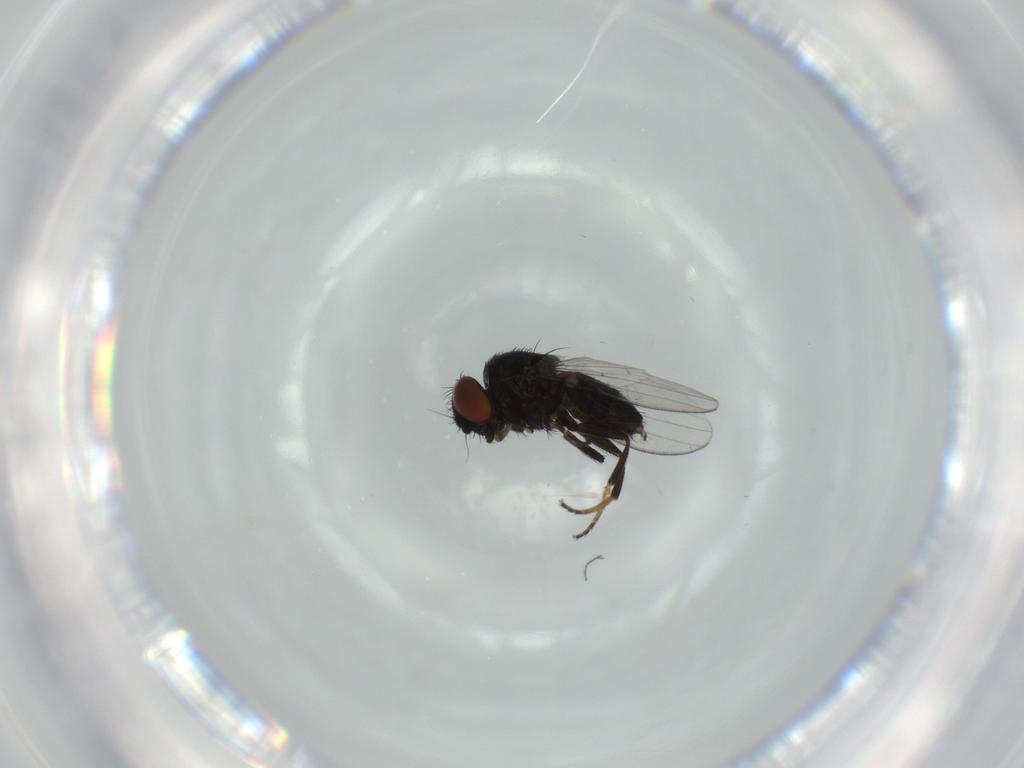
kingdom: Animalia
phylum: Arthropoda
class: Insecta
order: Diptera
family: Milichiidae
